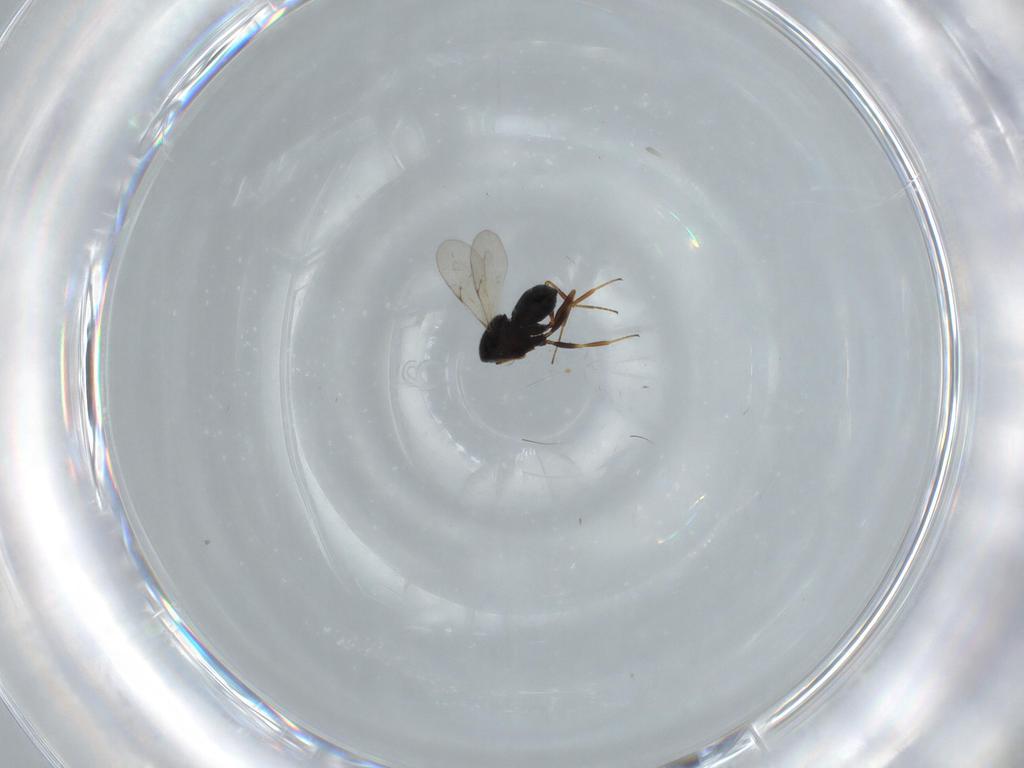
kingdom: Animalia
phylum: Arthropoda
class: Insecta
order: Hymenoptera
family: Scelionidae
